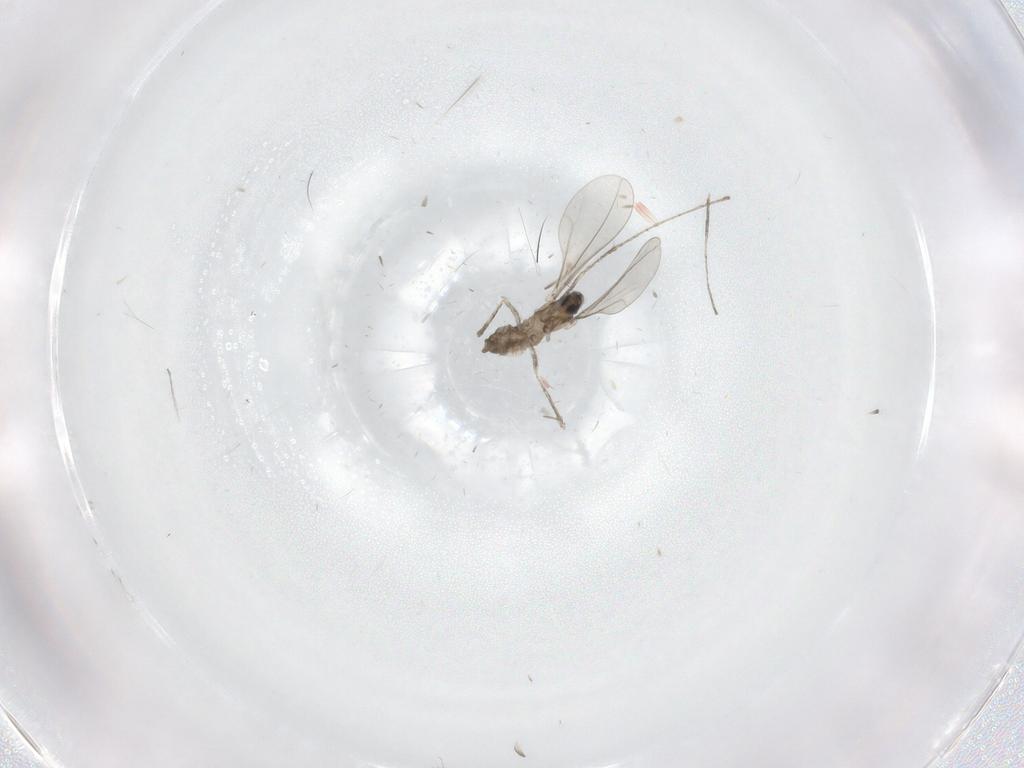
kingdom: Animalia
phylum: Arthropoda
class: Insecta
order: Diptera
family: Cecidomyiidae
